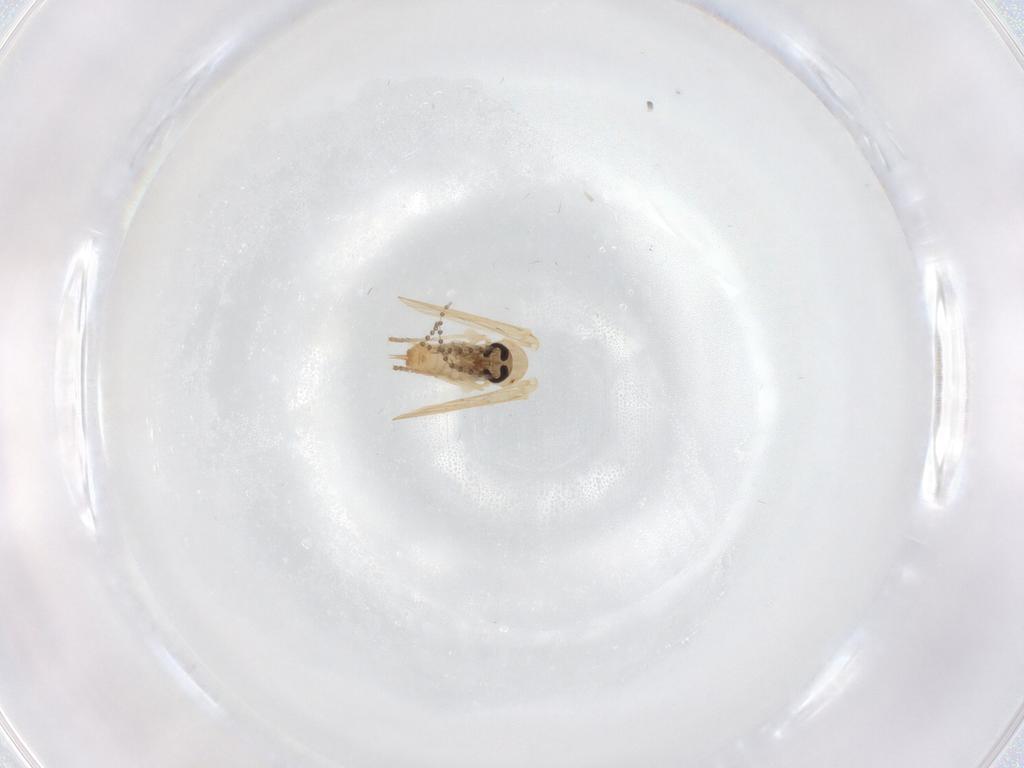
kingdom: Animalia
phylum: Arthropoda
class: Insecta
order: Diptera
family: Psychodidae
